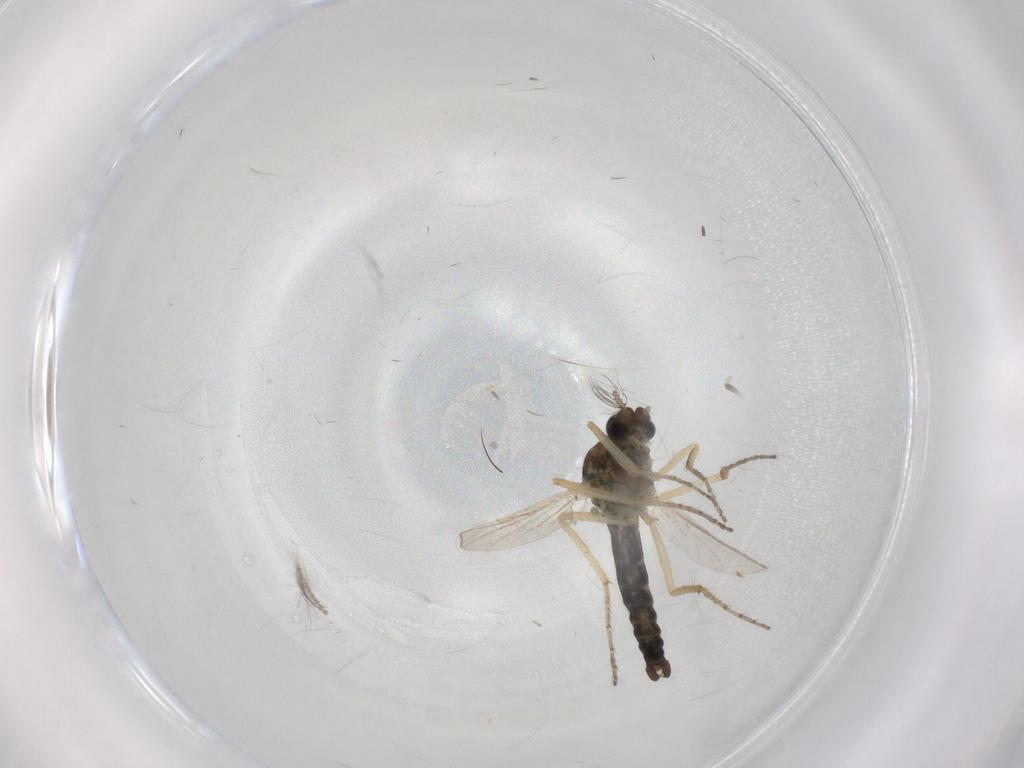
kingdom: Animalia
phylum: Arthropoda
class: Insecta
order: Diptera
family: Ceratopogonidae
